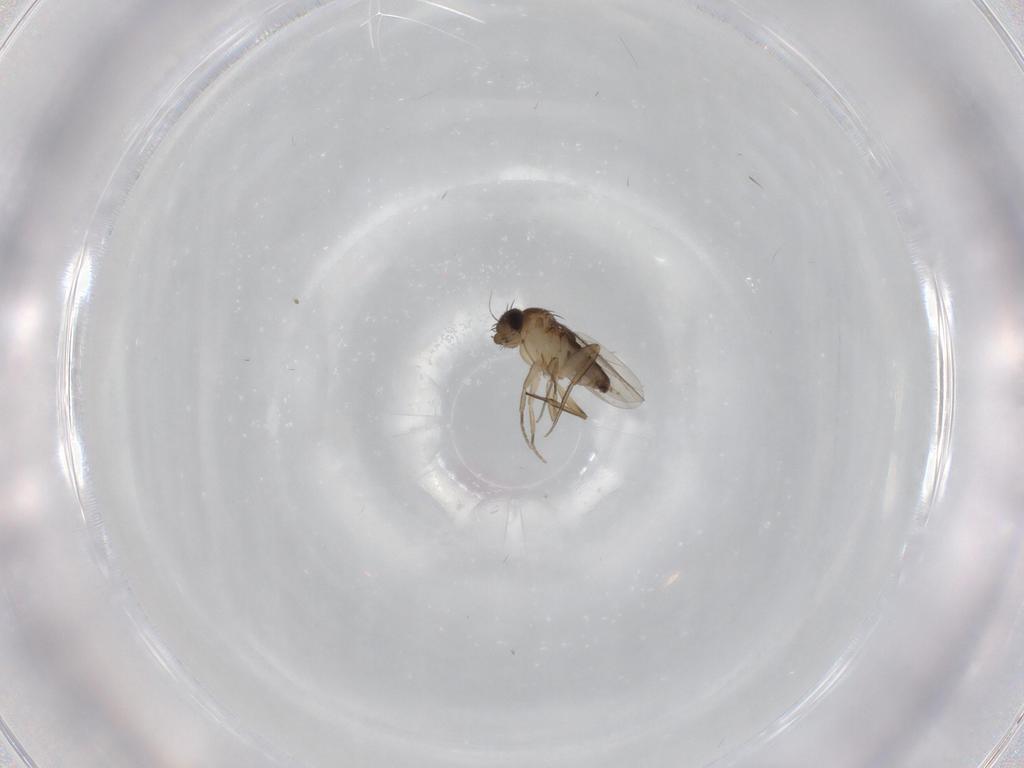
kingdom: Animalia
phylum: Arthropoda
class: Insecta
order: Diptera
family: Phoridae
